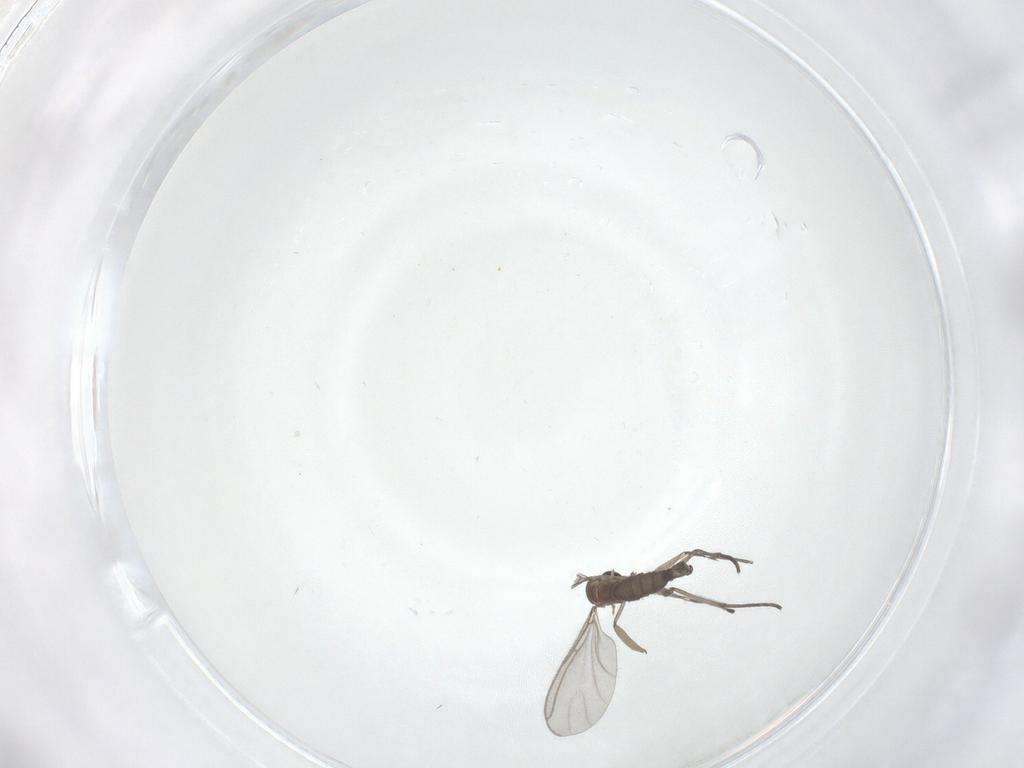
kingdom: Animalia
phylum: Arthropoda
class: Insecta
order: Diptera
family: Sciaridae
